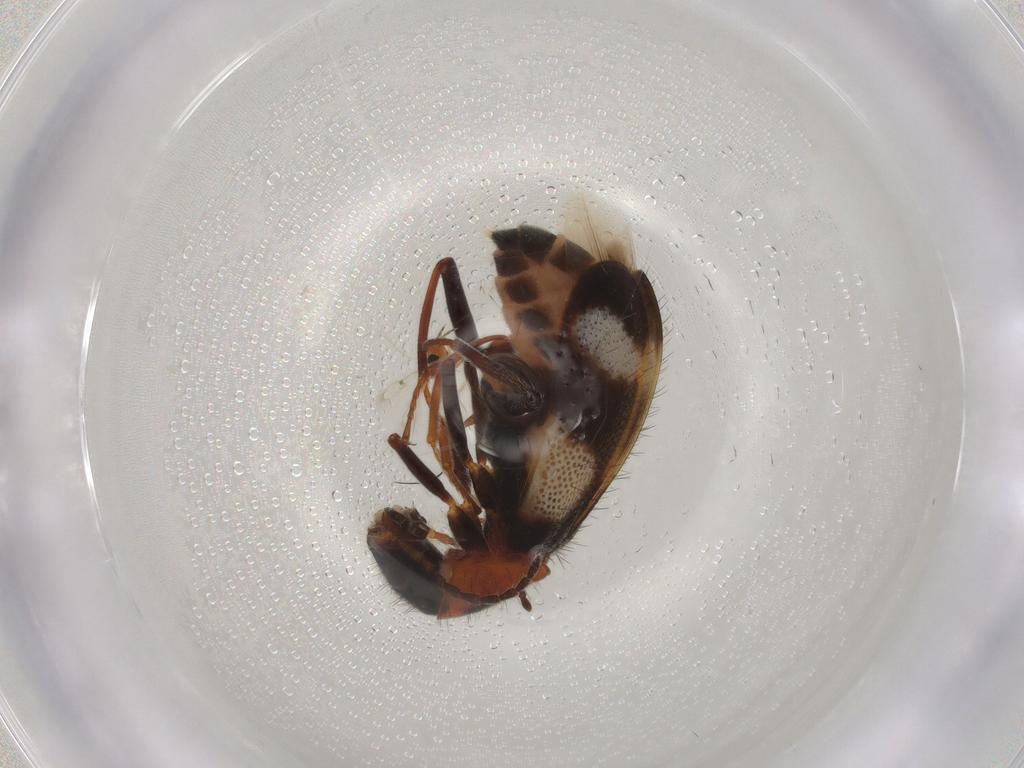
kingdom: Animalia
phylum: Arthropoda
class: Insecta
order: Coleoptera
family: Melyridae
